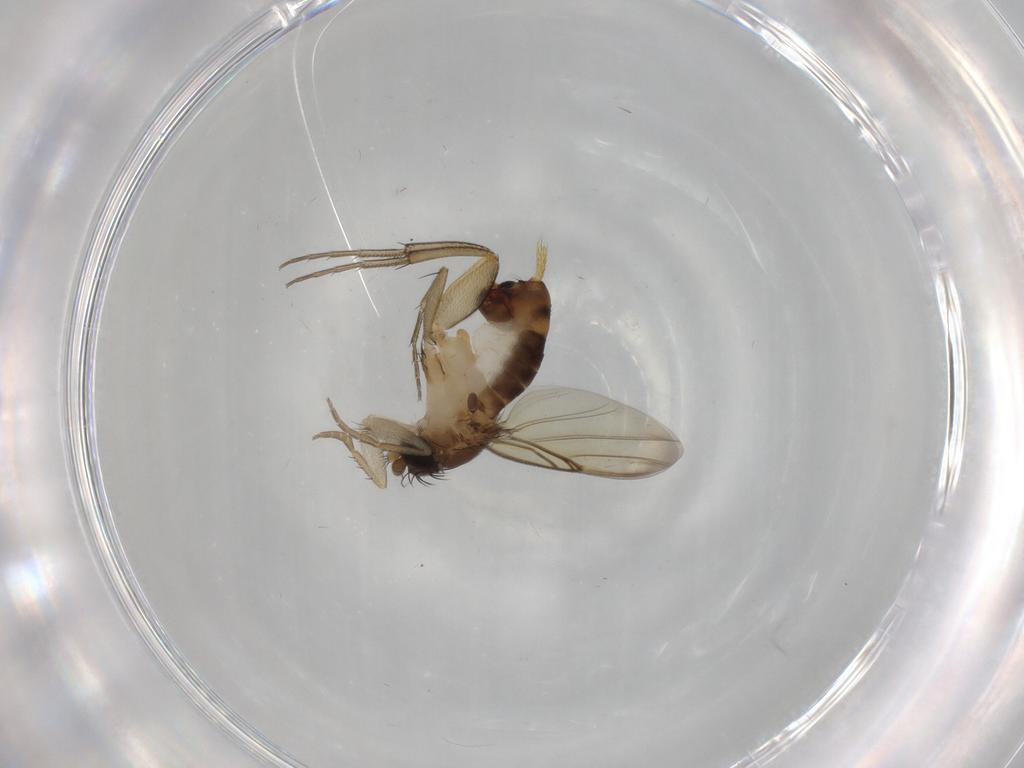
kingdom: Animalia
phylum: Arthropoda
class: Insecta
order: Diptera
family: Phoridae
